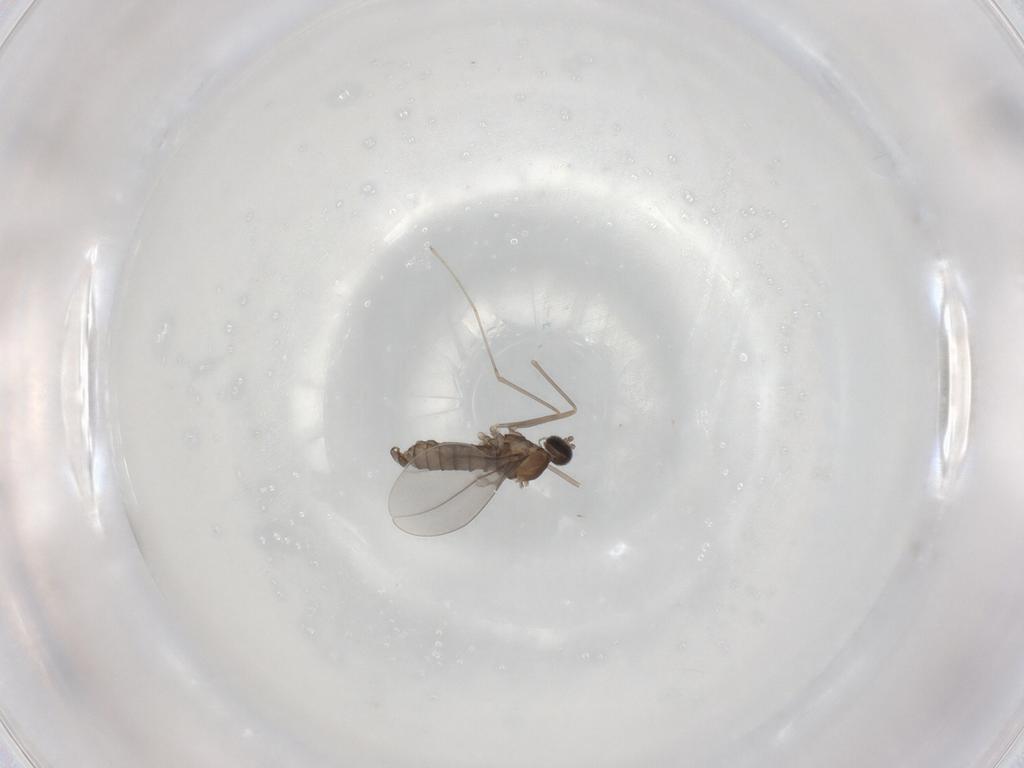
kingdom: Animalia
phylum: Arthropoda
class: Insecta
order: Diptera
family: Cecidomyiidae
